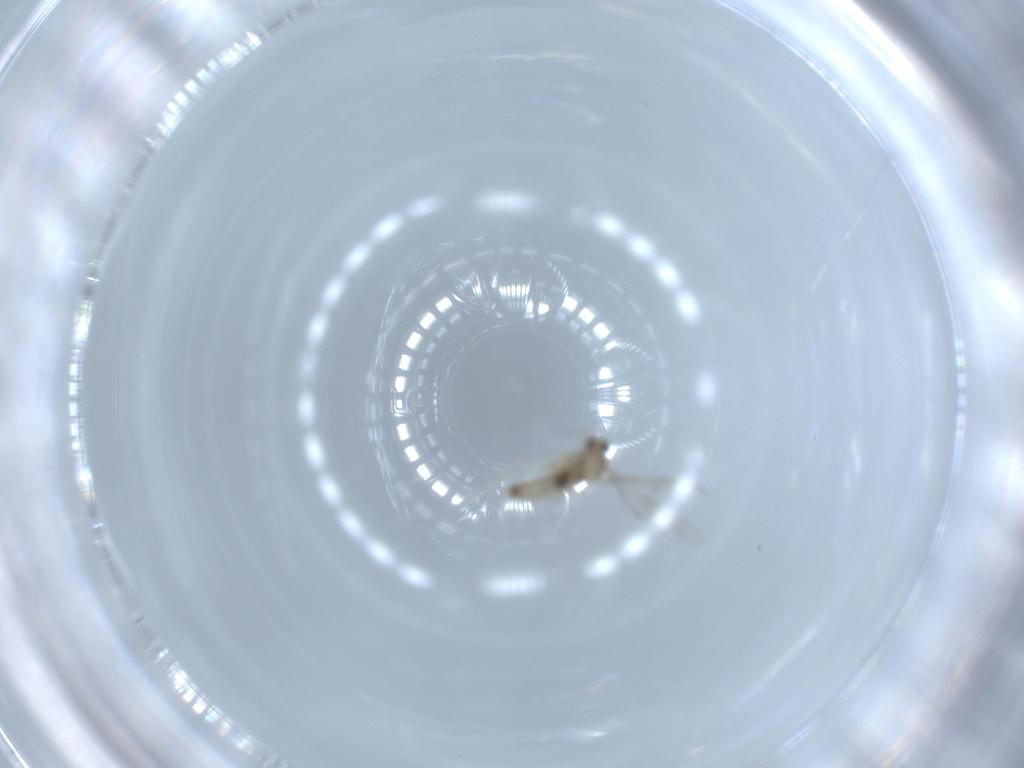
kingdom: Animalia
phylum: Arthropoda
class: Insecta
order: Diptera
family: Cecidomyiidae
